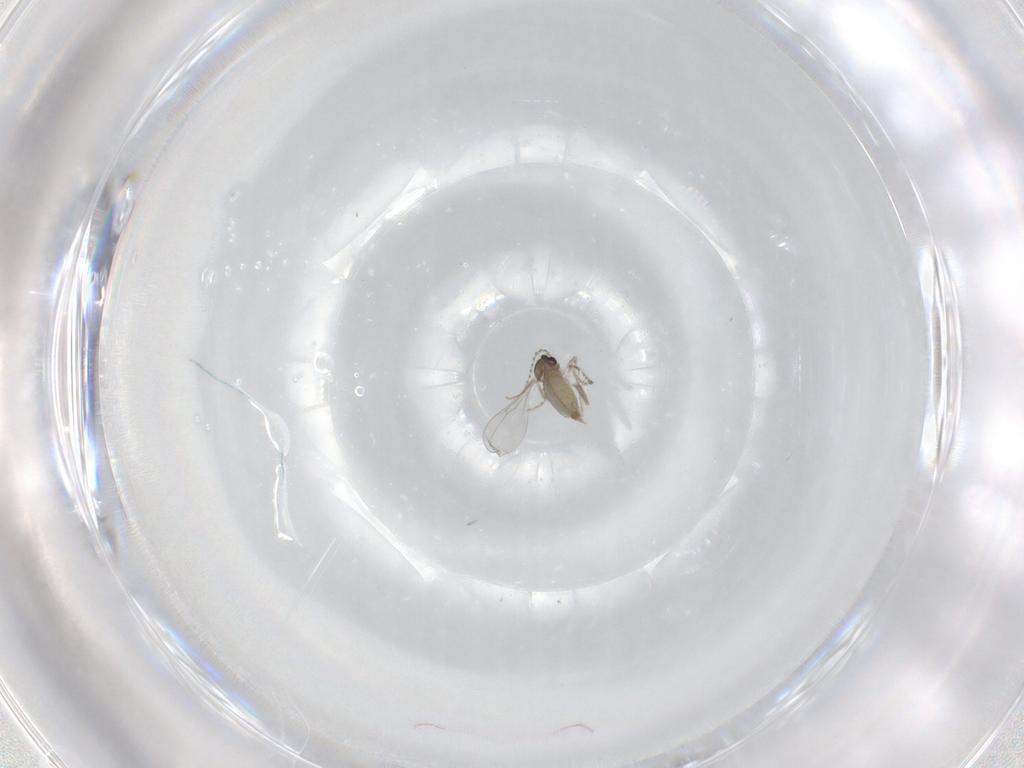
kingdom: Animalia
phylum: Arthropoda
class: Insecta
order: Diptera
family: Cecidomyiidae
